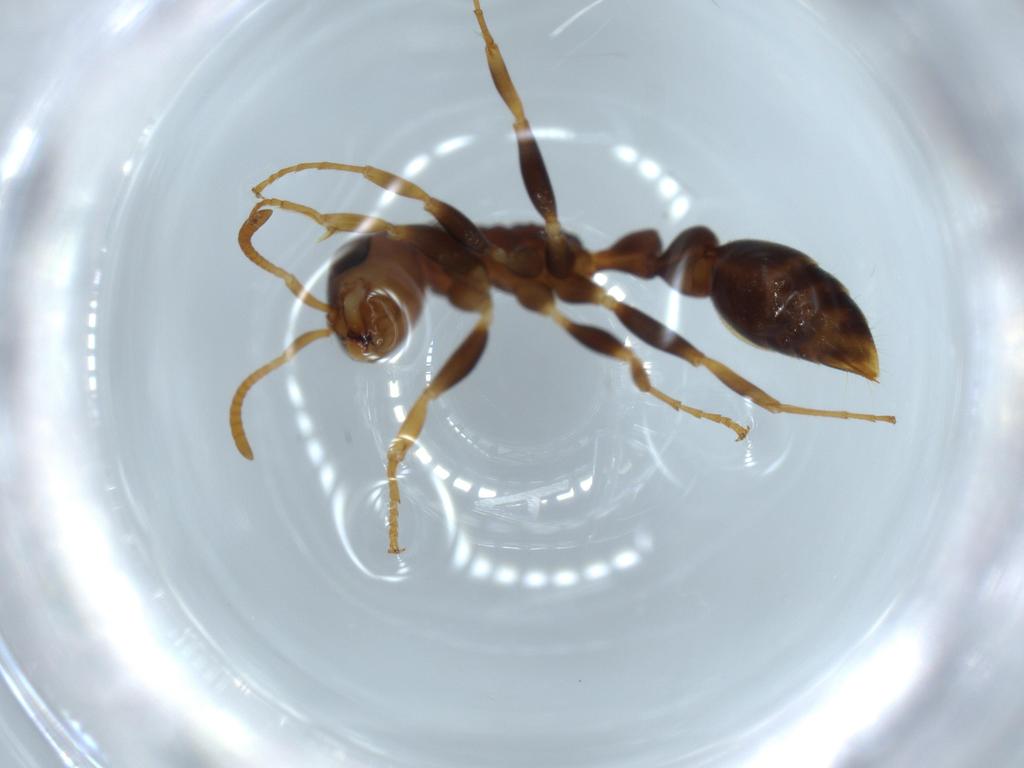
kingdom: Animalia
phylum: Arthropoda
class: Insecta
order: Hymenoptera
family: Formicidae
